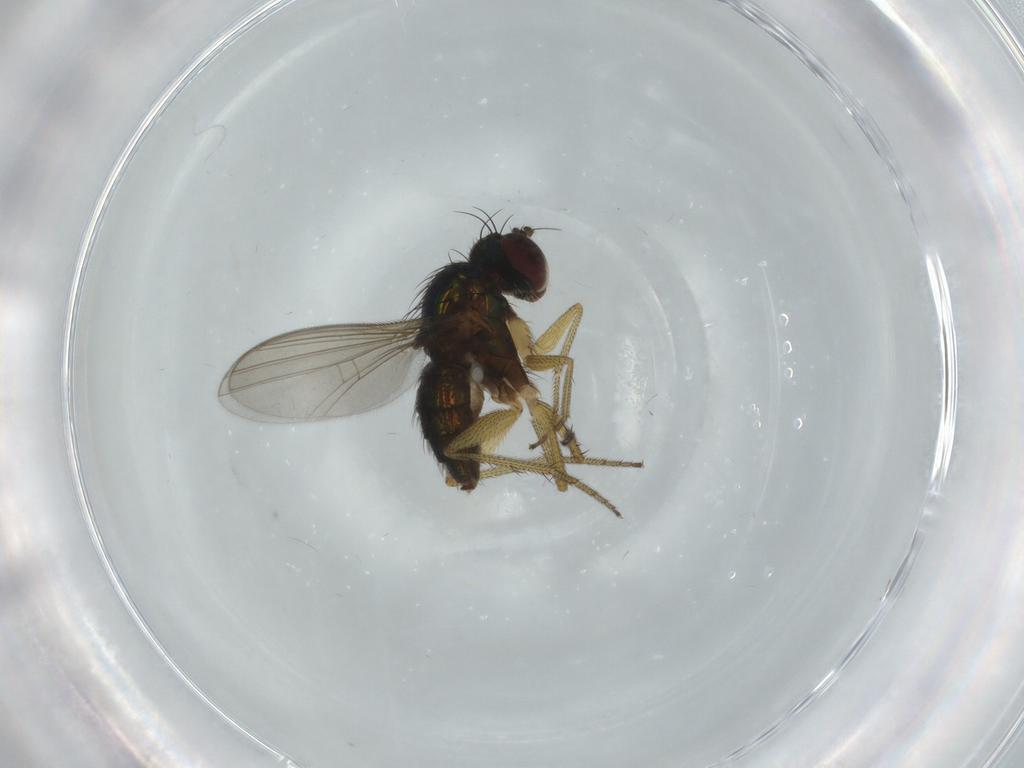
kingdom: Animalia
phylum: Arthropoda
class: Insecta
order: Diptera
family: Dolichopodidae
